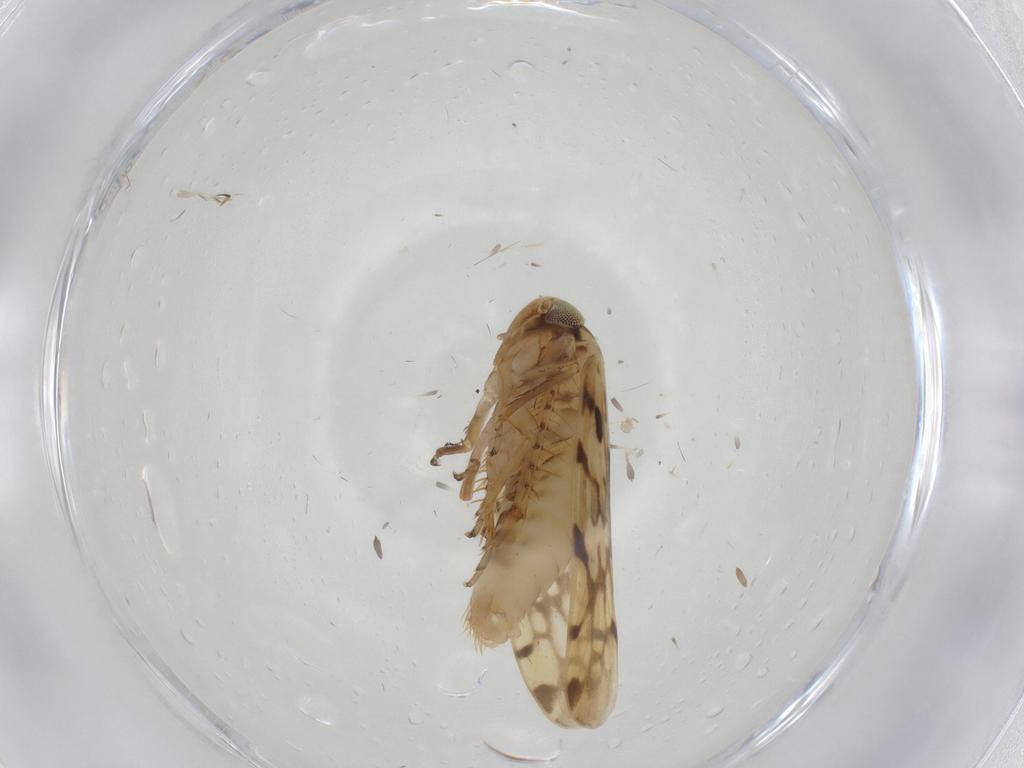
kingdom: Animalia
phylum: Arthropoda
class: Insecta
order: Hemiptera
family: Cicadellidae
